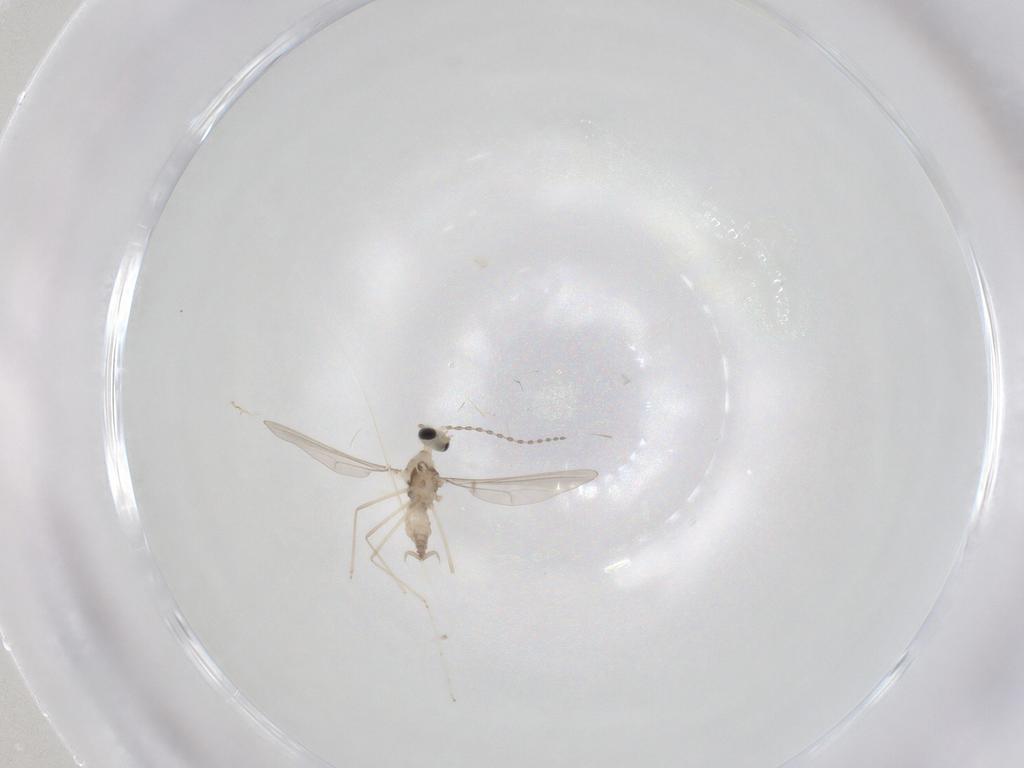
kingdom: Animalia
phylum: Arthropoda
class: Insecta
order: Diptera
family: Cecidomyiidae
